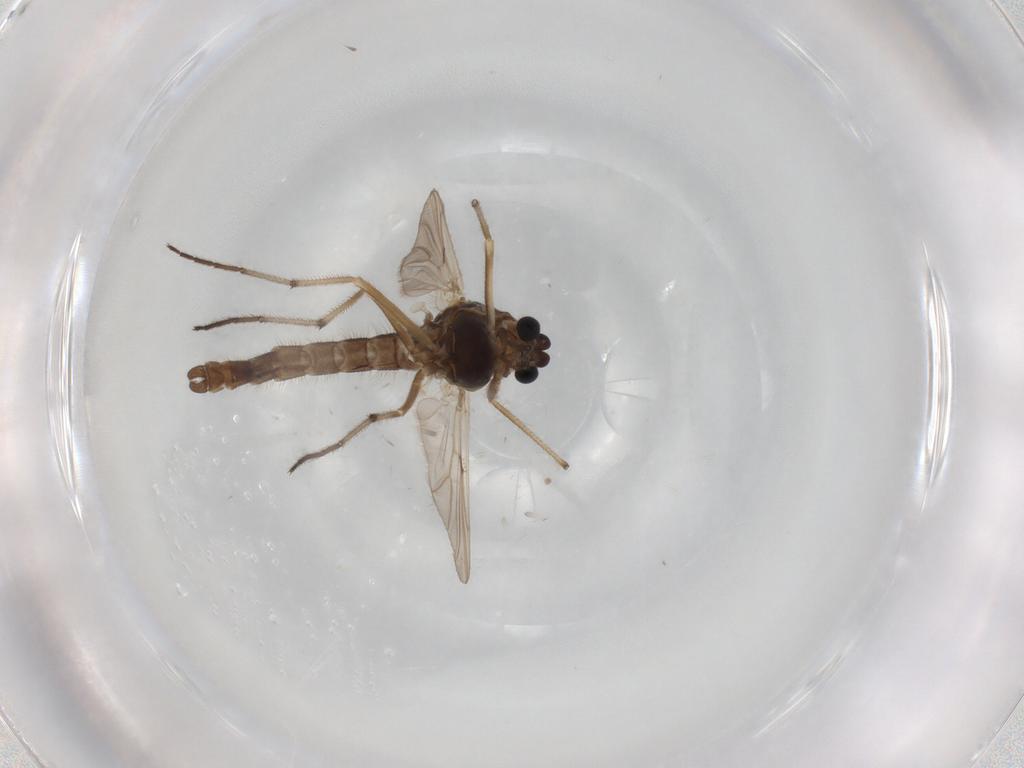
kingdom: Animalia
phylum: Arthropoda
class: Insecta
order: Diptera
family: Chironomidae
